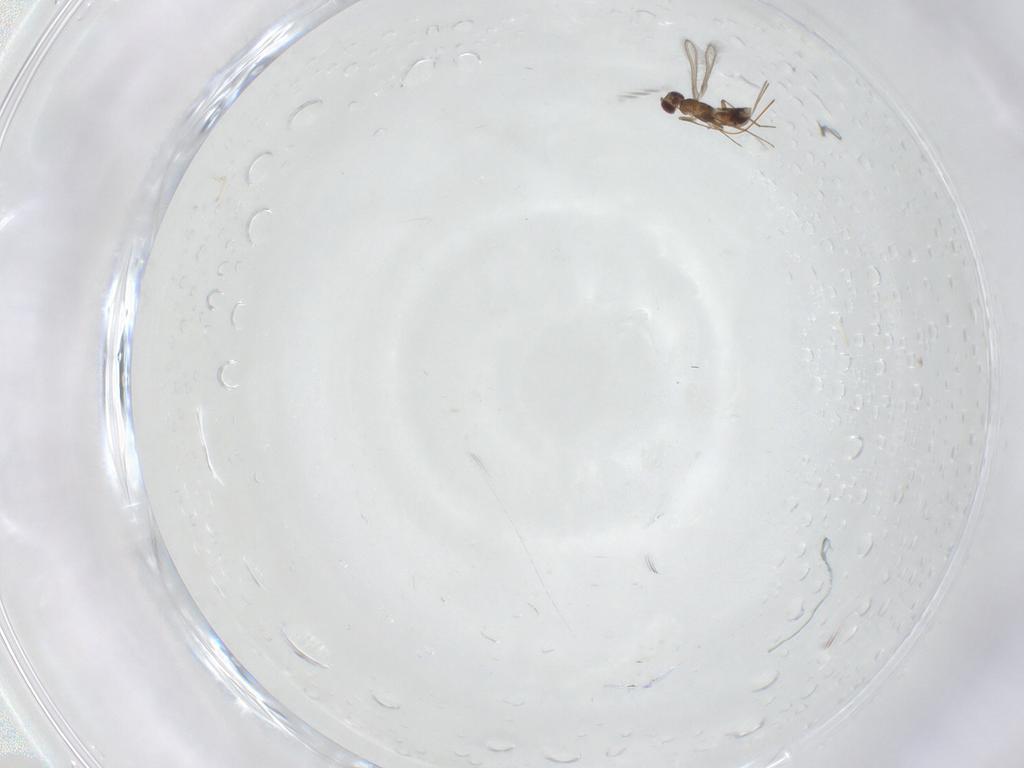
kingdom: Animalia
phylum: Arthropoda
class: Insecta
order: Hymenoptera
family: Mymaridae
